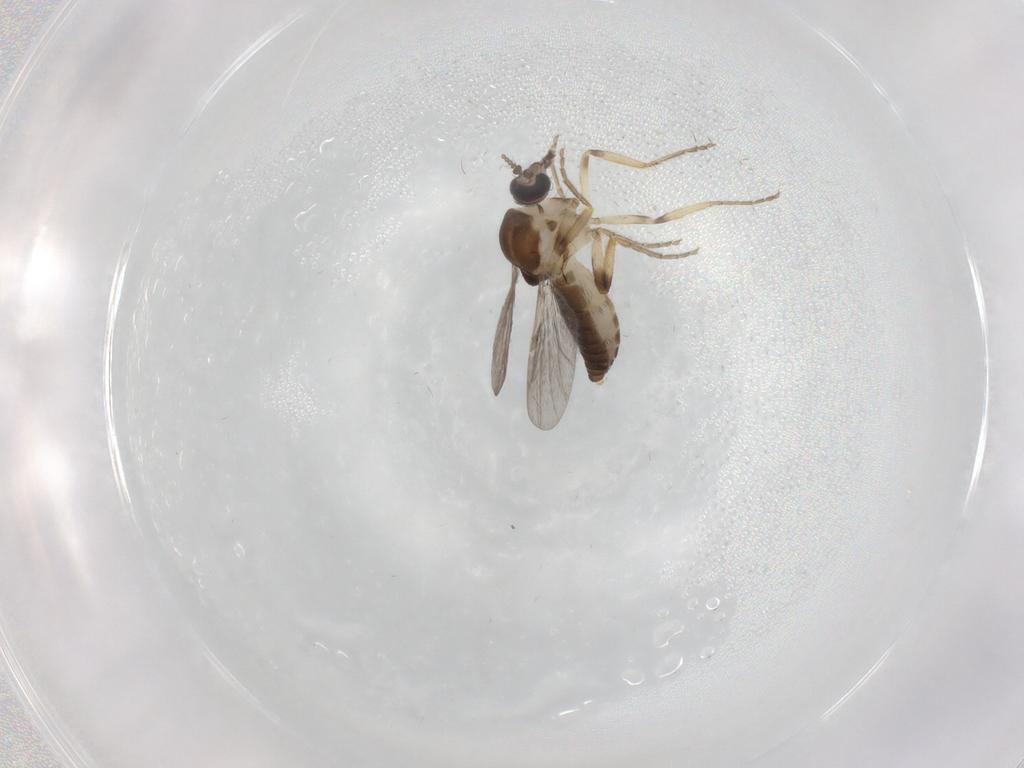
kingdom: Animalia
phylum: Arthropoda
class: Insecta
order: Diptera
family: Ceratopogonidae
